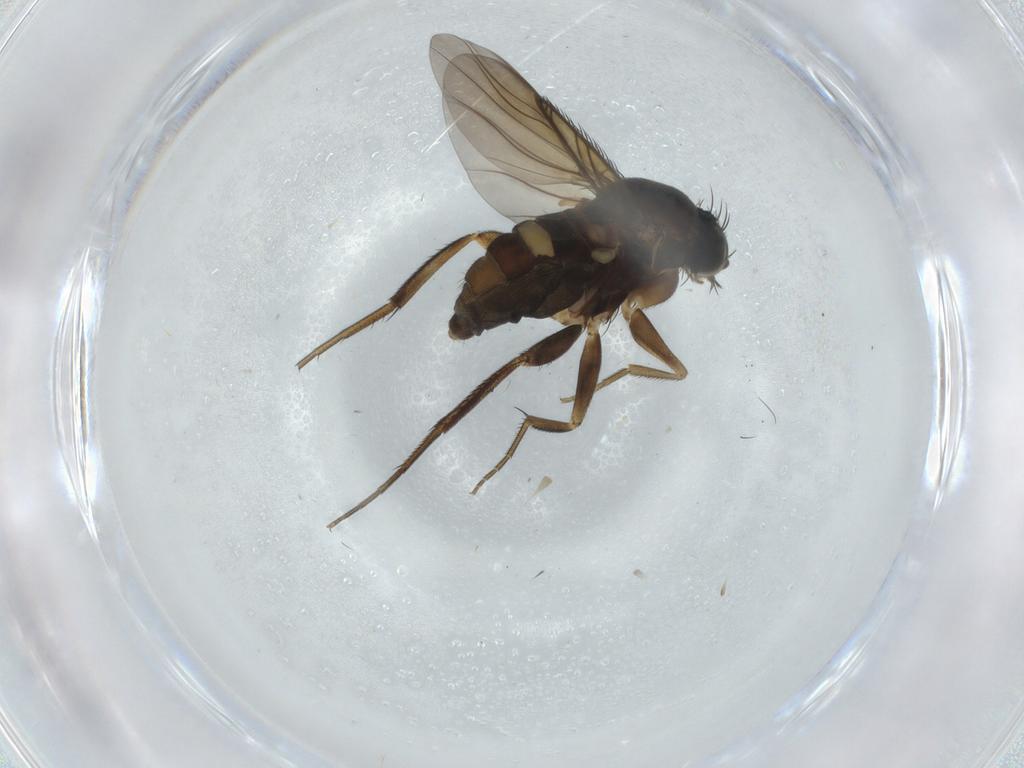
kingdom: Animalia
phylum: Arthropoda
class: Insecta
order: Diptera
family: Phoridae
